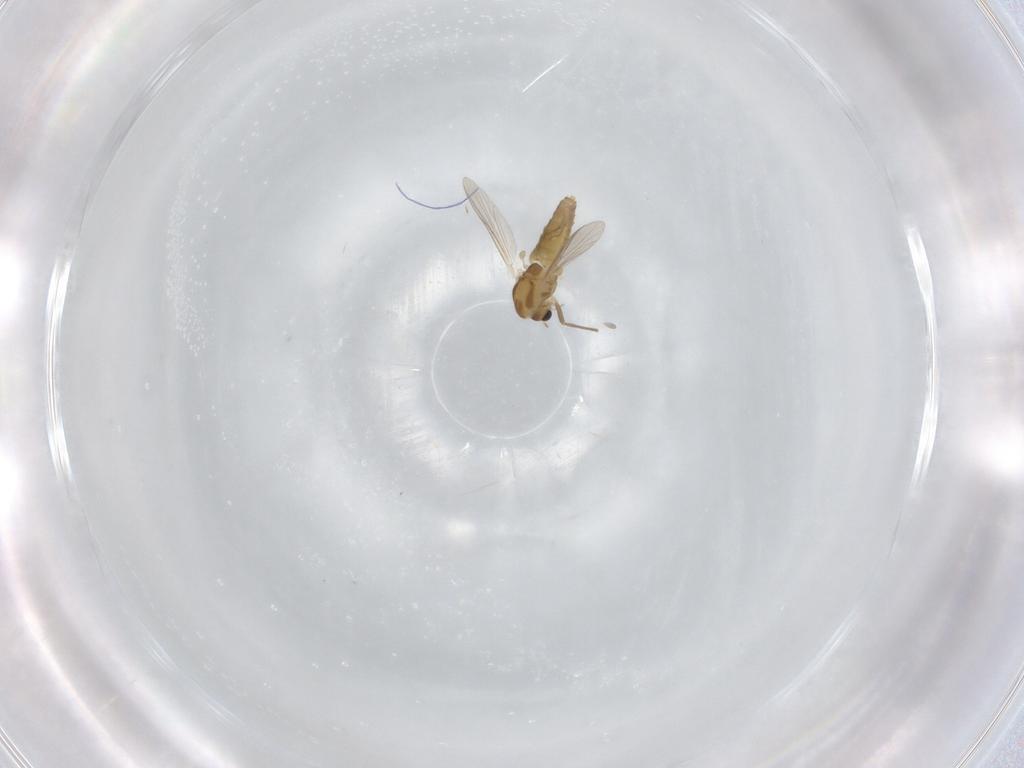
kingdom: Animalia
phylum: Arthropoda
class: Insecta
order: Diptera
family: Chironomidae
